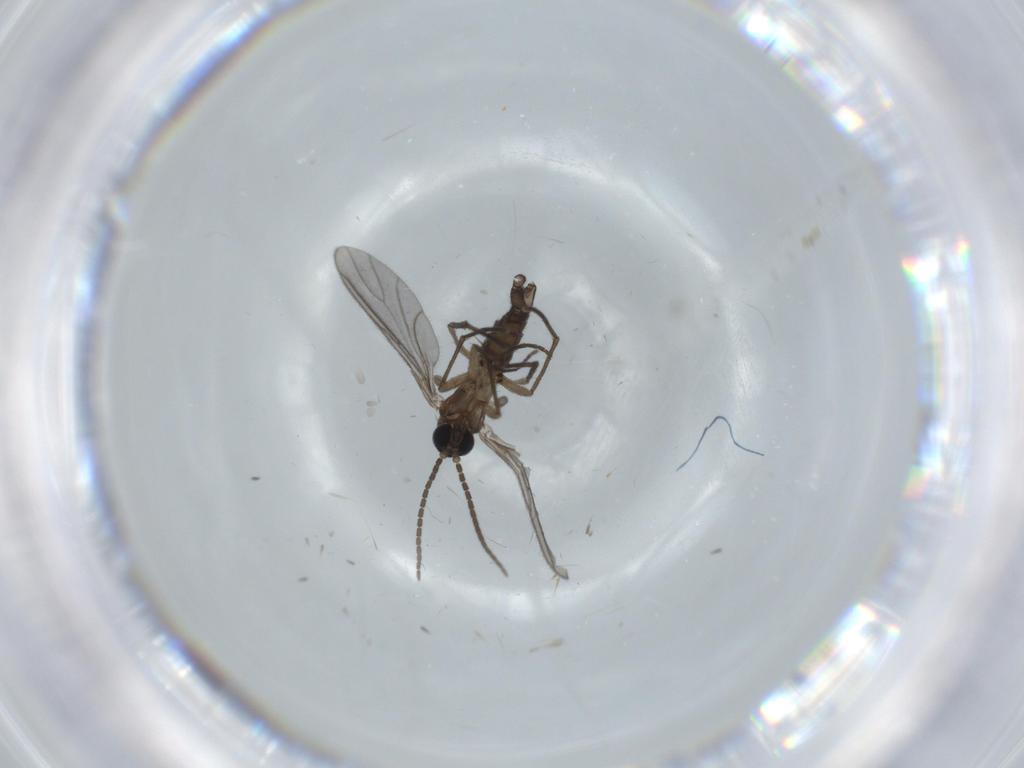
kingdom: Animalia
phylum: Arthropoda
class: Insecta
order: Diptera
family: Sciaridae
